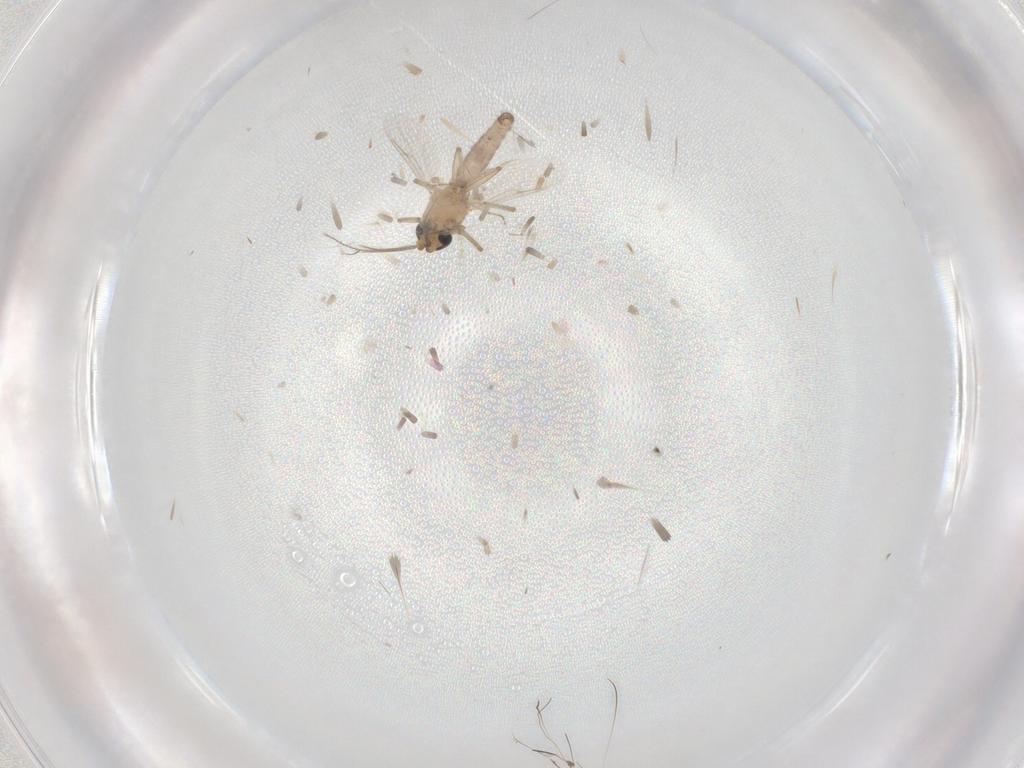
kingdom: Animalia
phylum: Arthropoda
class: Insecta
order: Diptera
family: Ceratopogonidae
